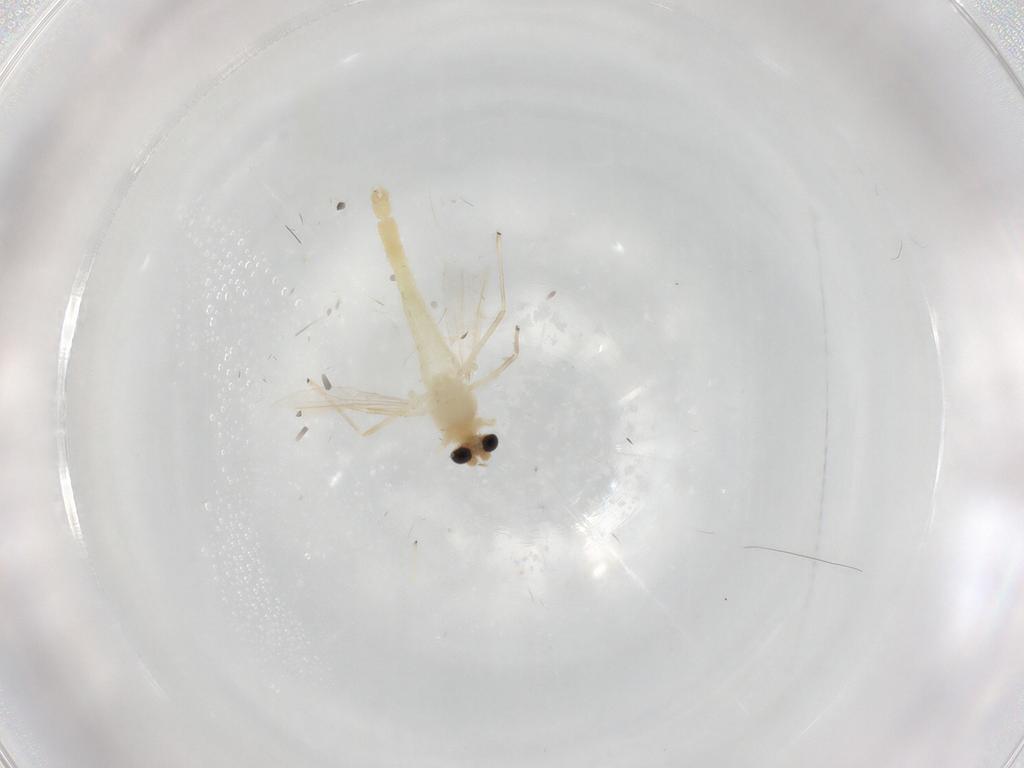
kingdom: Animalia
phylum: Arthropoda
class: Insecta
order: Diptera
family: Chironomidae
